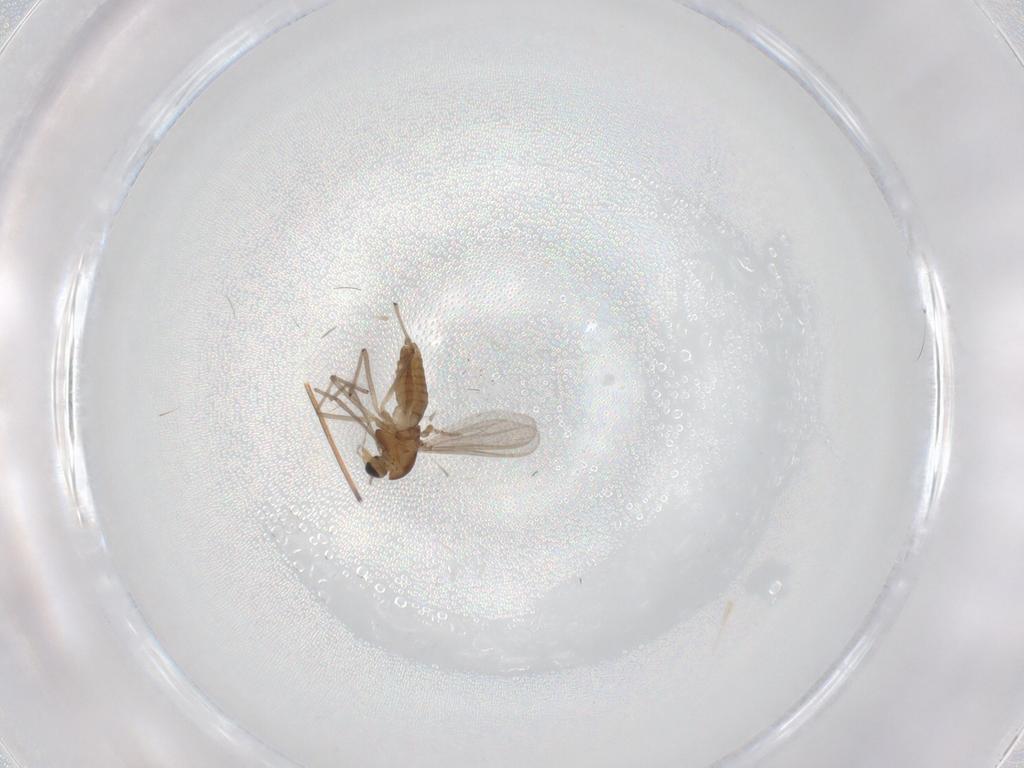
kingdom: Animalia
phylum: Arthropoda
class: Insecta
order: Diptera
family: Chironomidae
